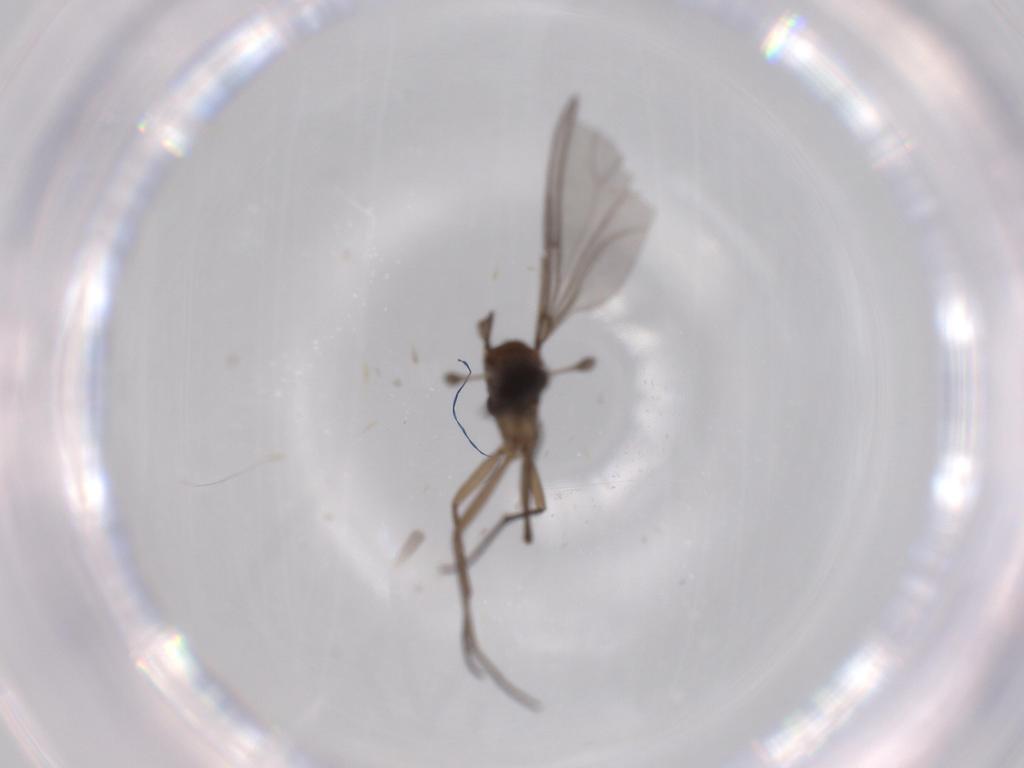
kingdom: Animalia
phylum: Arthropoda
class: Insecta
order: Diptera
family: Sciaridae
